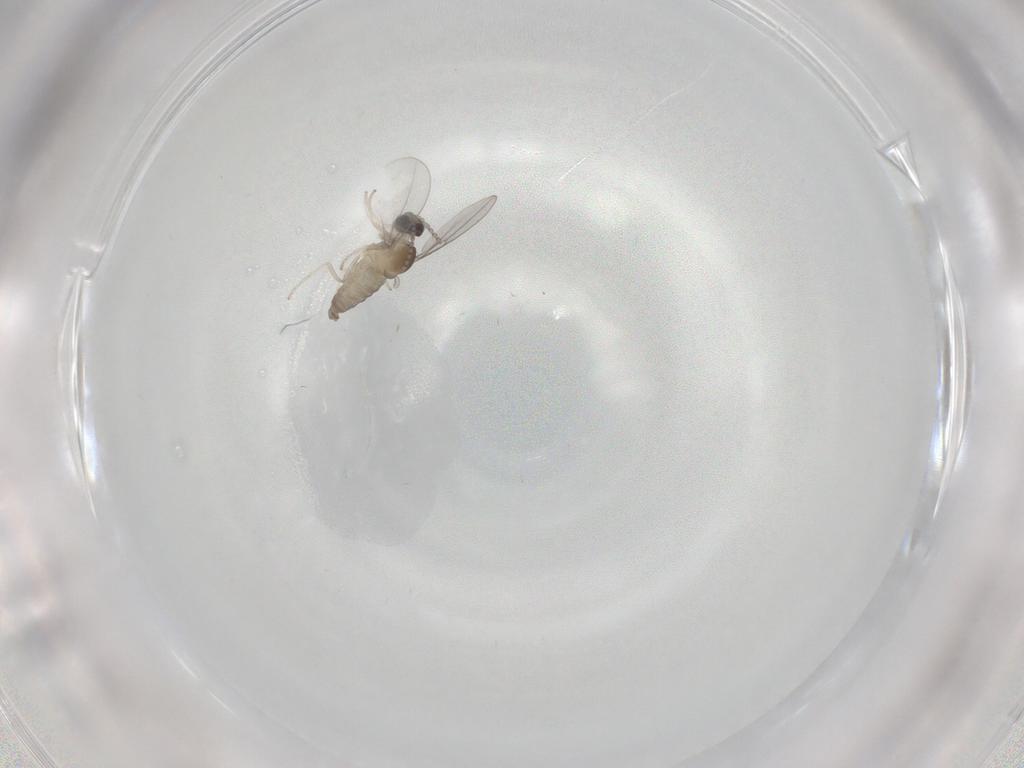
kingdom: Animalia
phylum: Arthropoda
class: Insecta
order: Diptera
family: Cecidomyiidae
